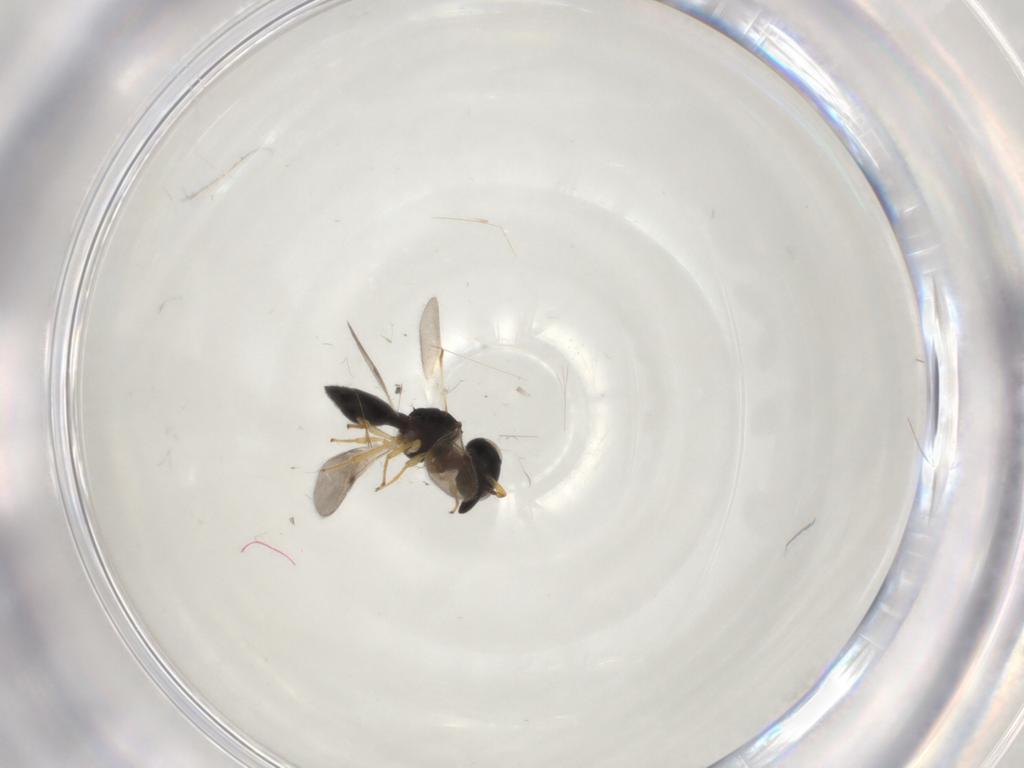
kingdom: Animalia
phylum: Arthropoda
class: Insecta
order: Hymenoptera
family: Scelionidae
